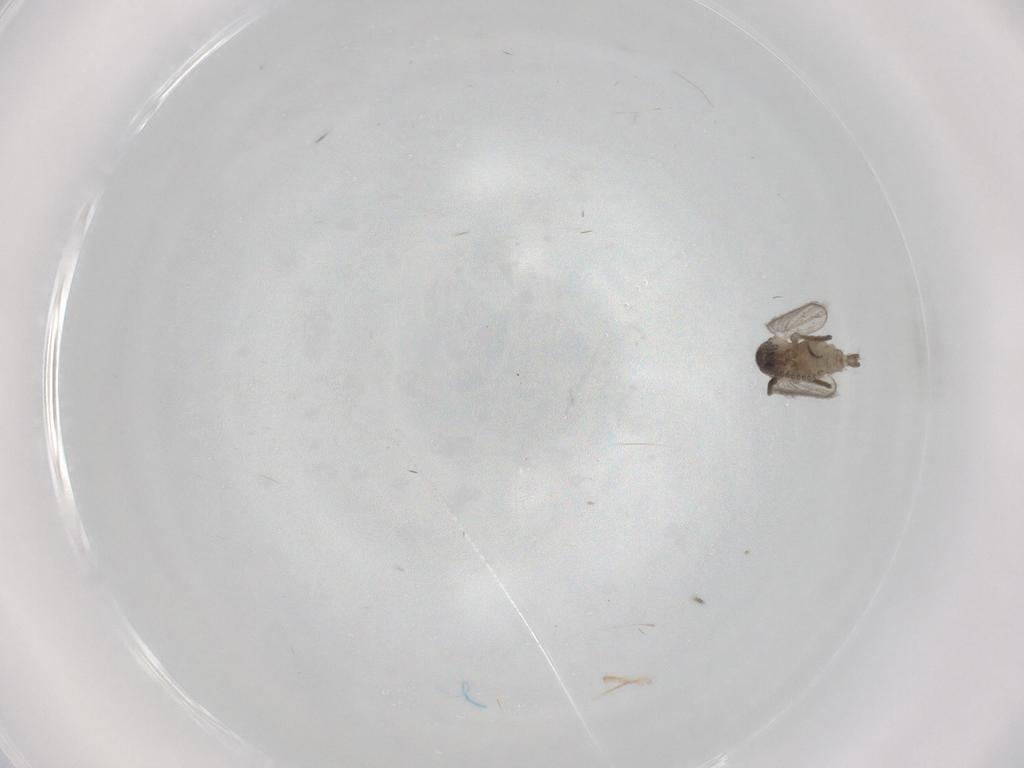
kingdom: Animalia
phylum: Arthropoda
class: Insecta
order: Diptera
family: Psychodidae
